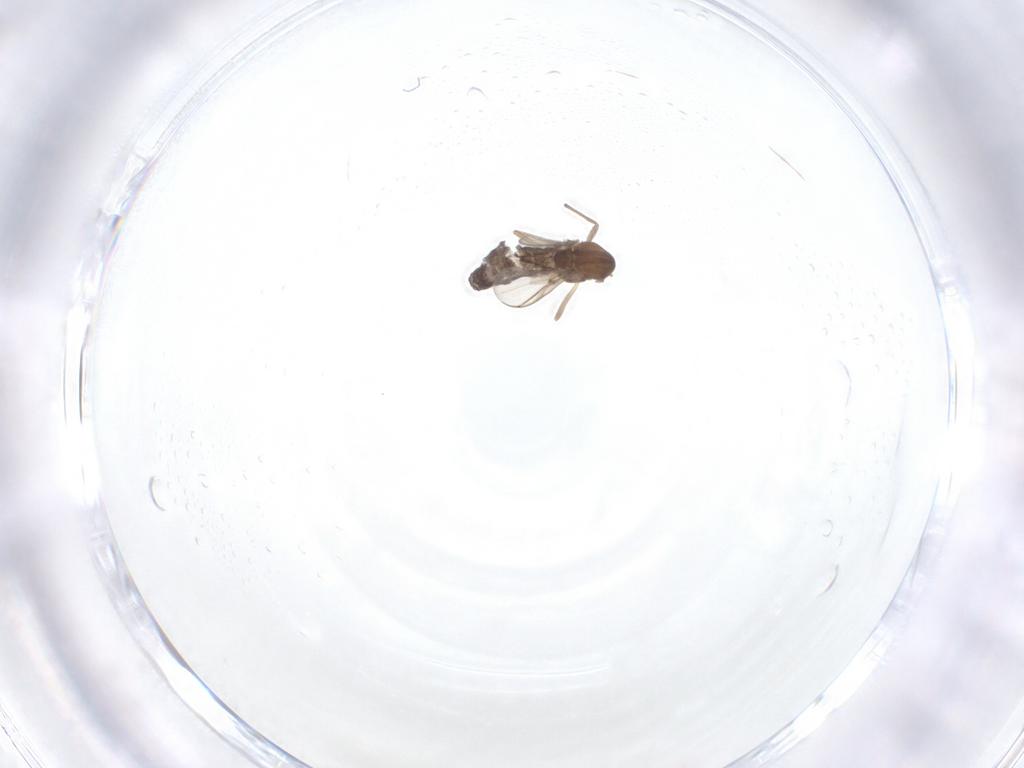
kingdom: Animalia
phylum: Arthropoda
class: Insecta
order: Diptera
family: Chironomidae
